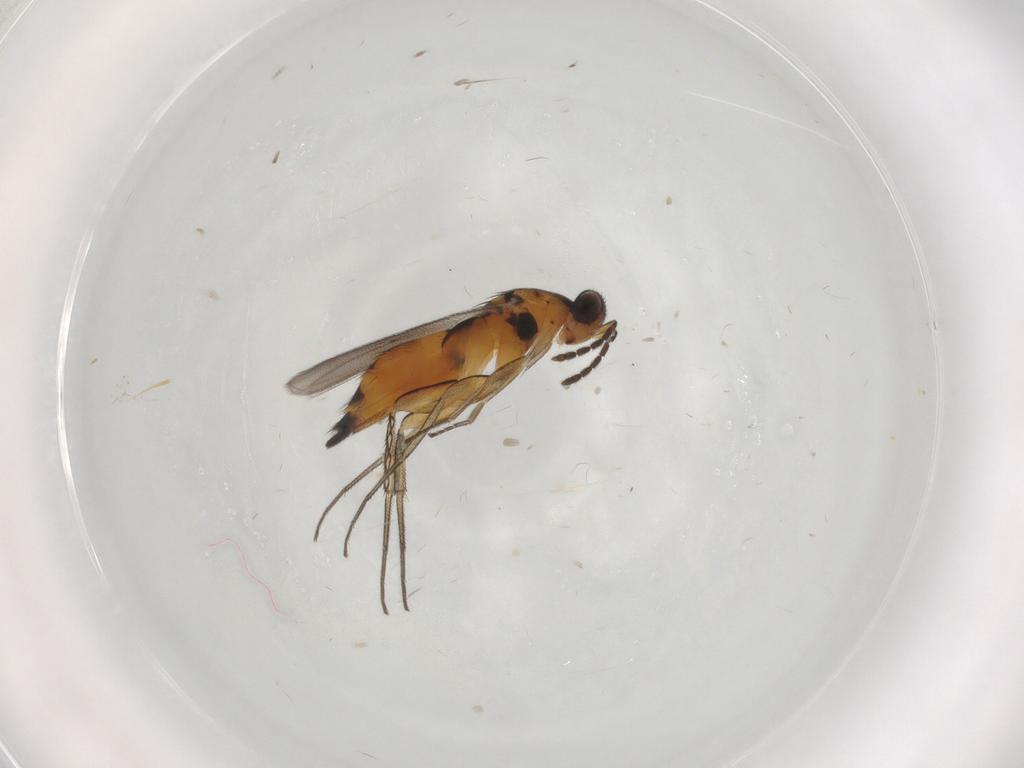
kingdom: Animalia
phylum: Arthropoda
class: Insecta
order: Hymenoptera
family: Eulophidae
